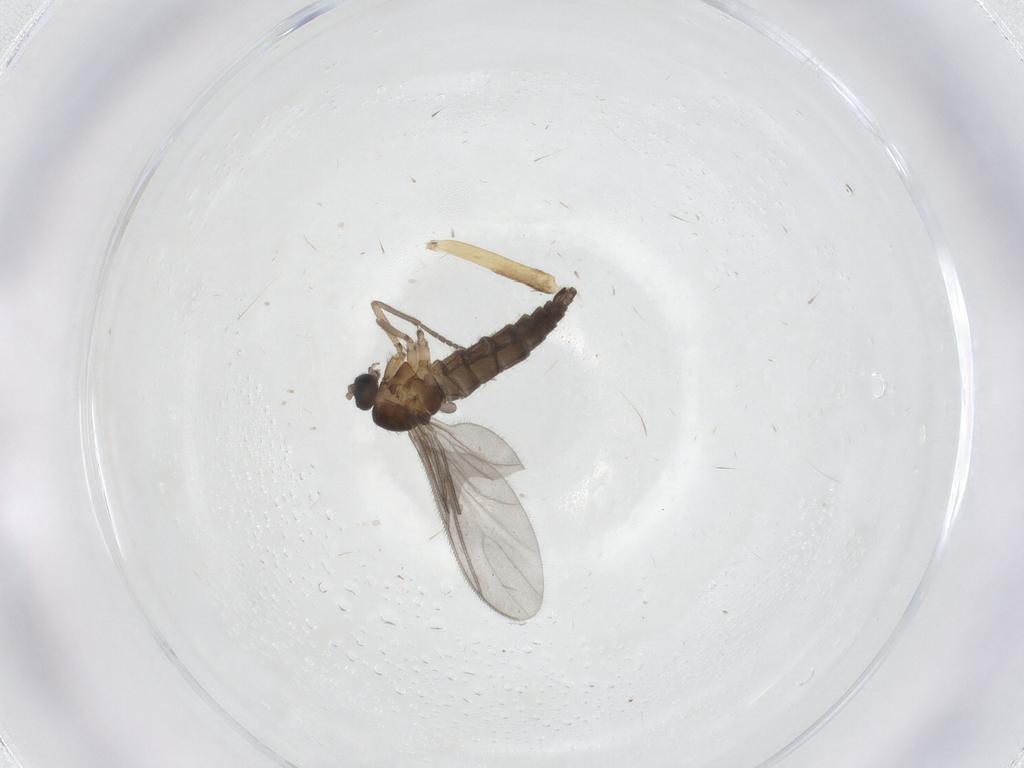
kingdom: Animalia
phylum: Arthropoda
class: Insecta
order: Diptera
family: Sciaridae
